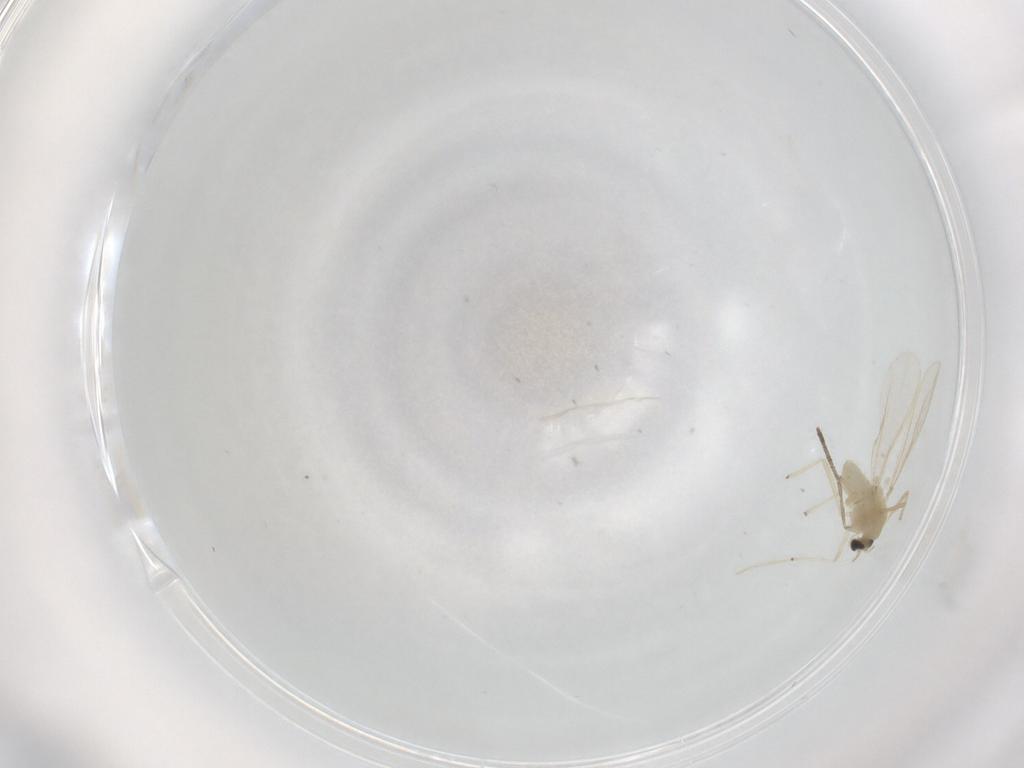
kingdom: Animalia
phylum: Arthropoda
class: Insecta
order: Diptera
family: Chironomidae
